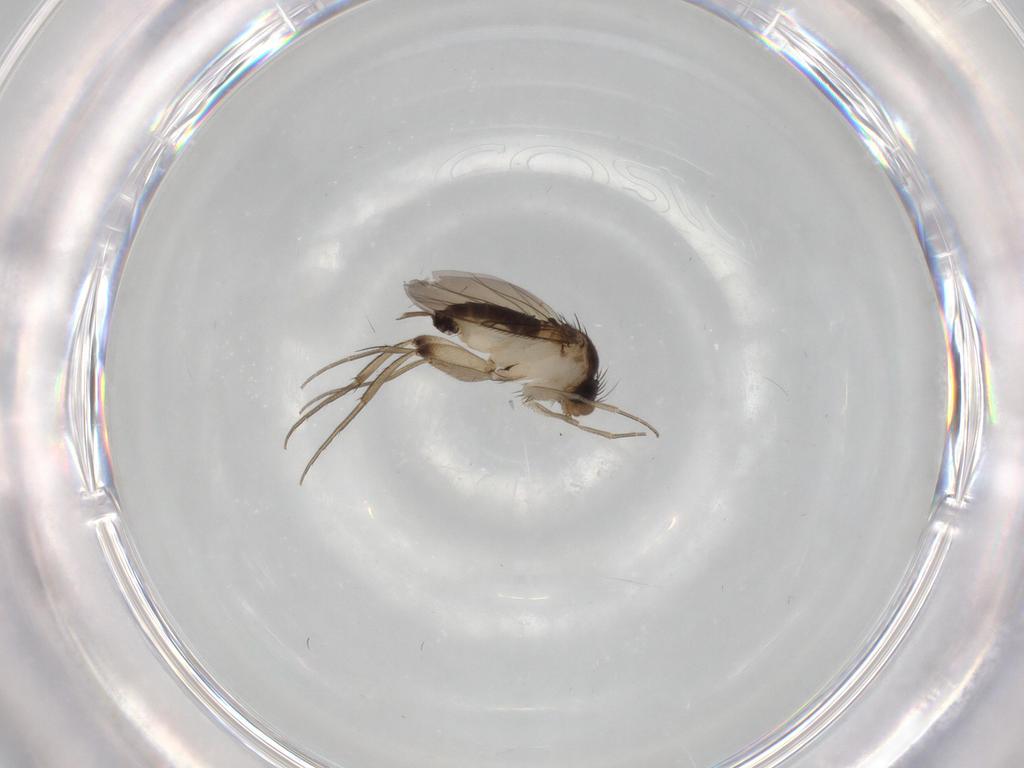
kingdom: Animalia
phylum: Arthropoda
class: Insecta
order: Diptera
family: Phoridae
